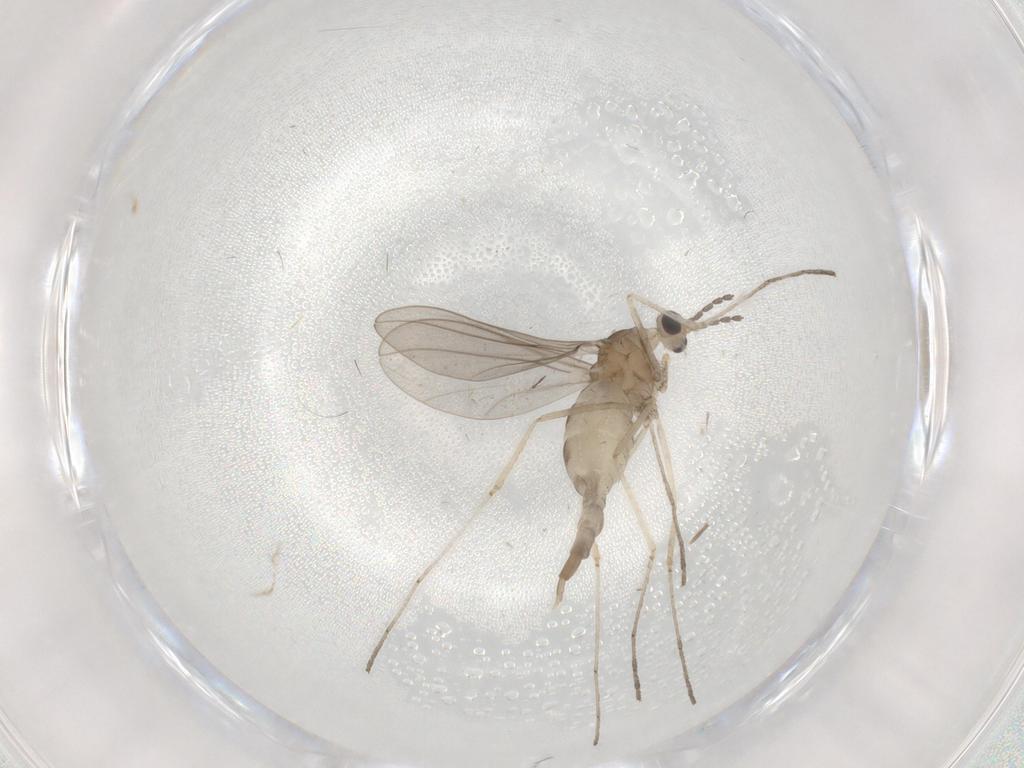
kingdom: Animalia
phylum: Arthropoda
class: Insecta
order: Diptera
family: Cecidomyiidae
